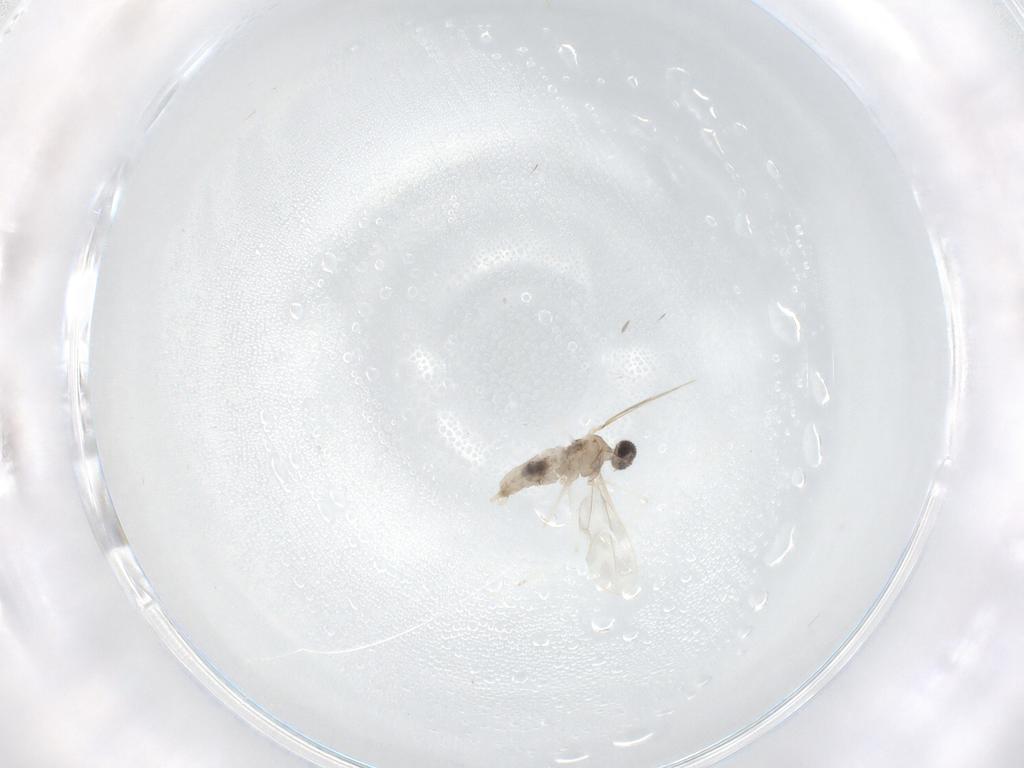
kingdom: Animalia
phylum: Arthropoda
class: Insecta
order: Diptera
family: Cecidomyiidae
